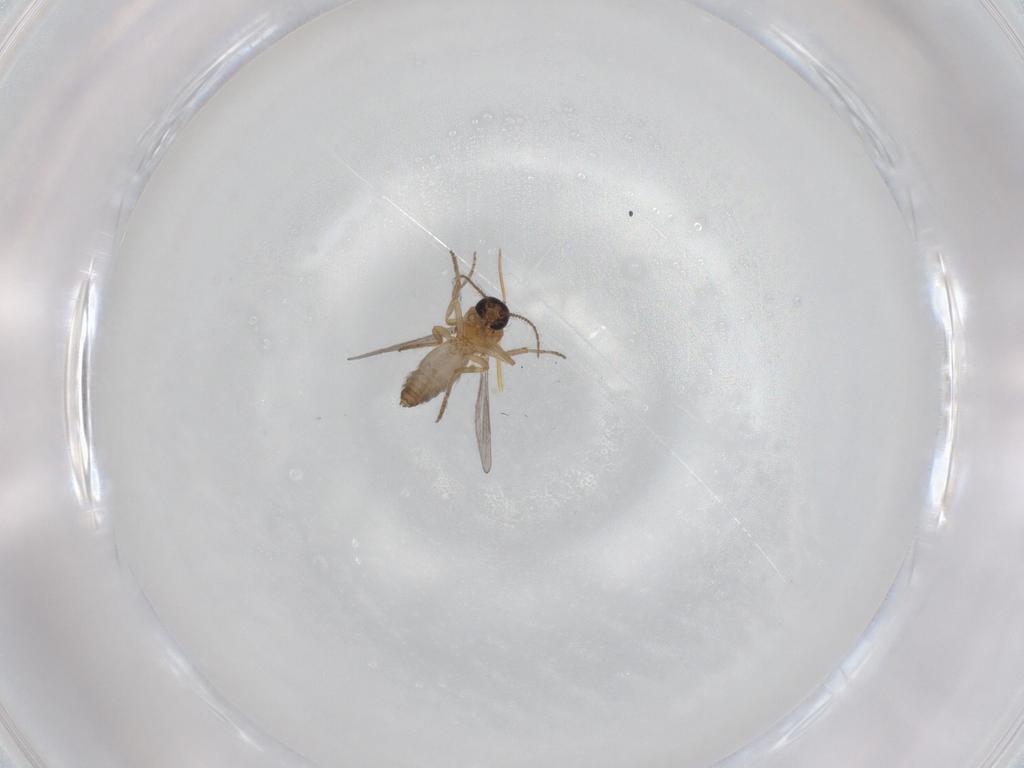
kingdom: Animalia
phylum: Arthropoda
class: Insecta
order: Diptera
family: Ceratopogonidae
